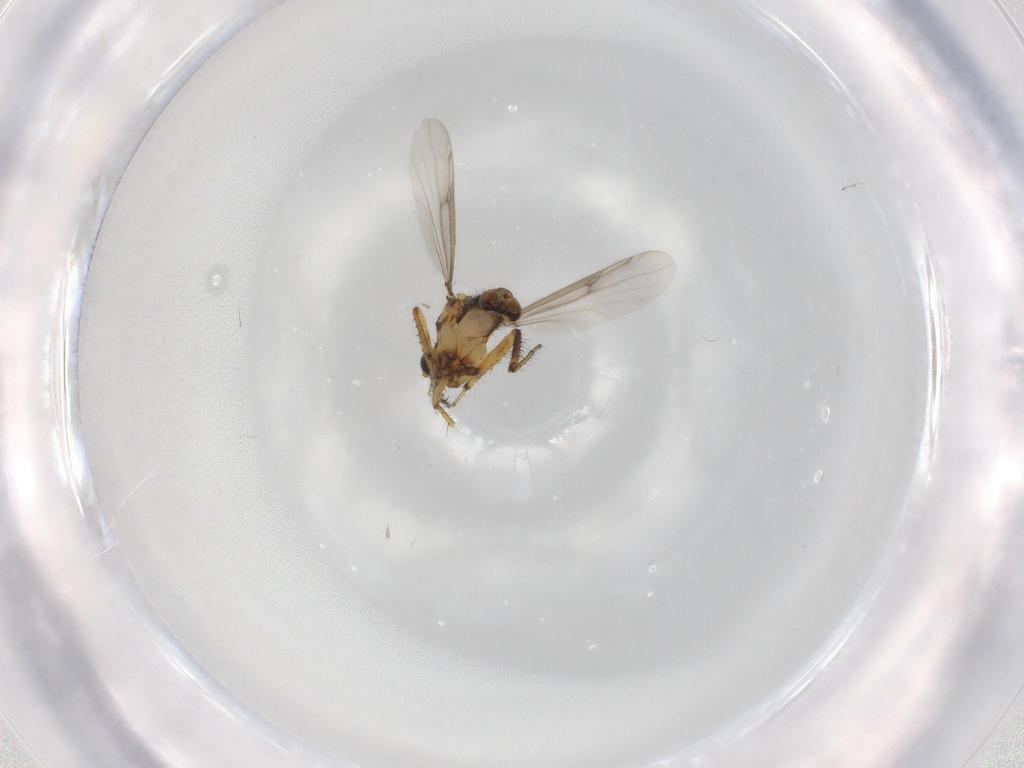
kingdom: Animalia
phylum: Arthropoda
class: Insecta
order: Diptera
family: Ceratopogonidae
